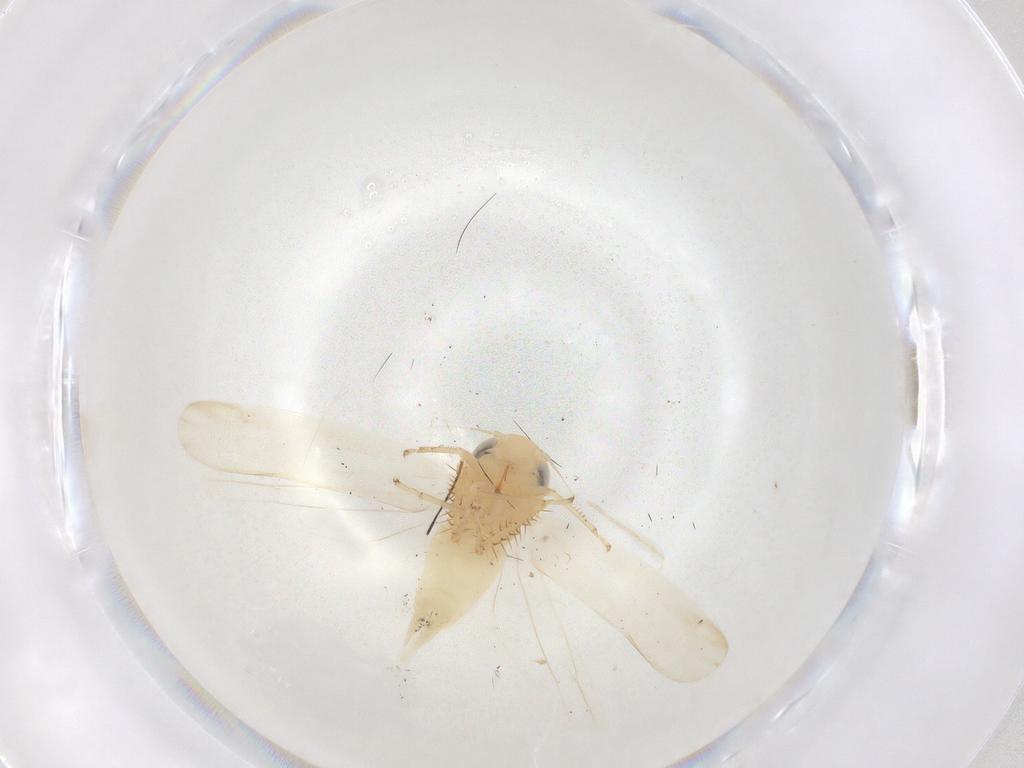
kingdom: Animalia
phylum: Arthropoda
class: Insecta
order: Hemiptera
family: Cicadellidae
